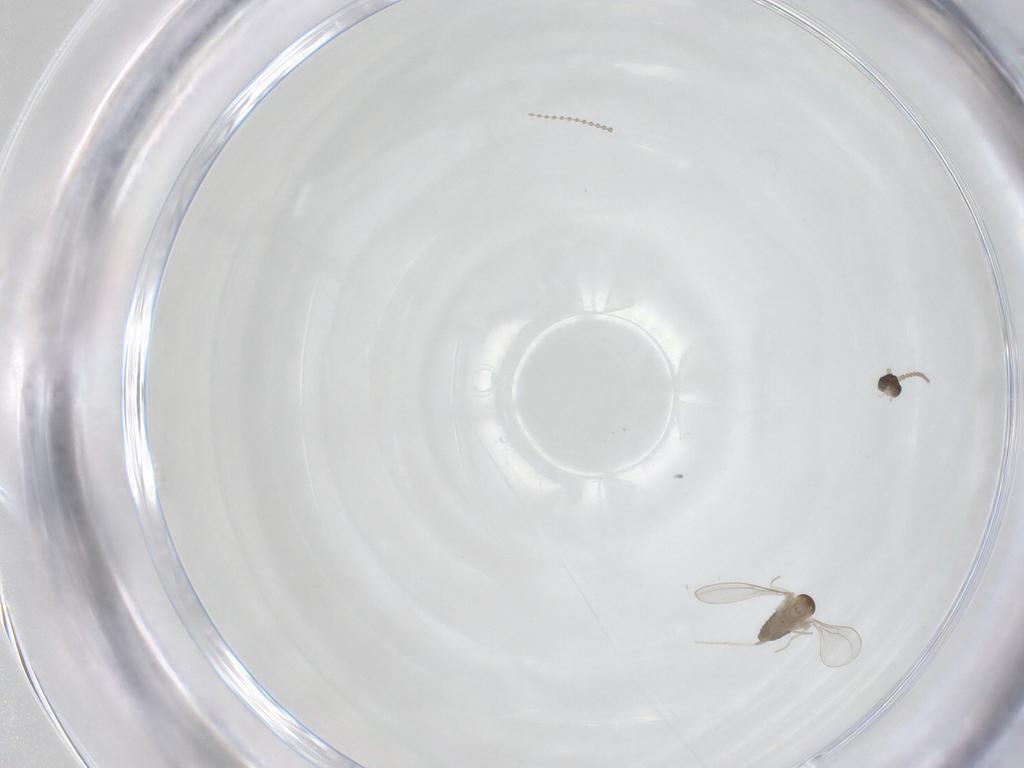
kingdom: Animalia
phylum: Arthropoda
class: Insecta
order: Diptera
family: Cecidomyiidae
